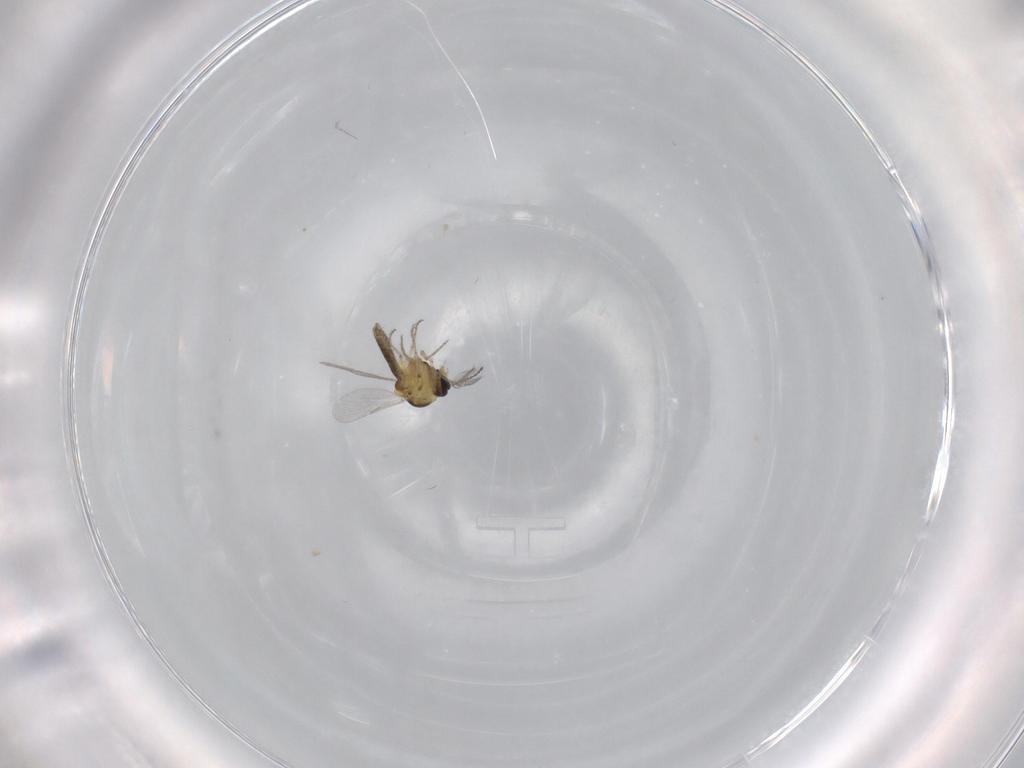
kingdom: Animalia
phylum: Arthropoda
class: Insecta
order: Diptera
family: Ceratopogonidae
